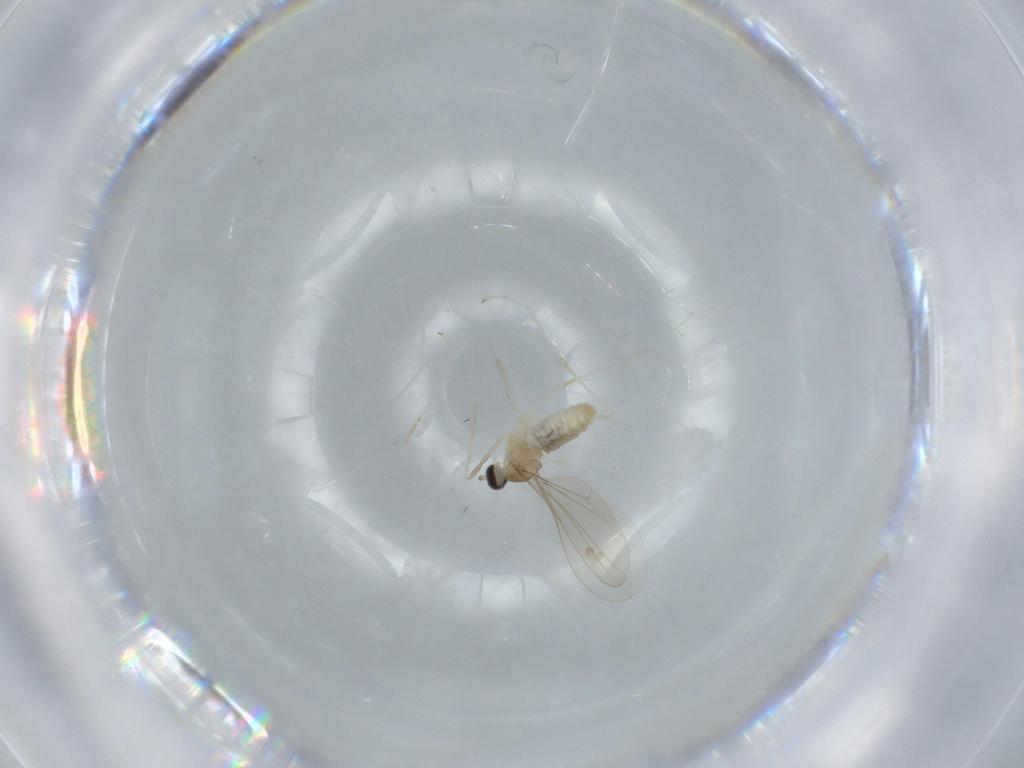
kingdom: Animalia
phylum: Arthropoda
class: Insecta
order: Diptera
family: Cecidomyiidae
